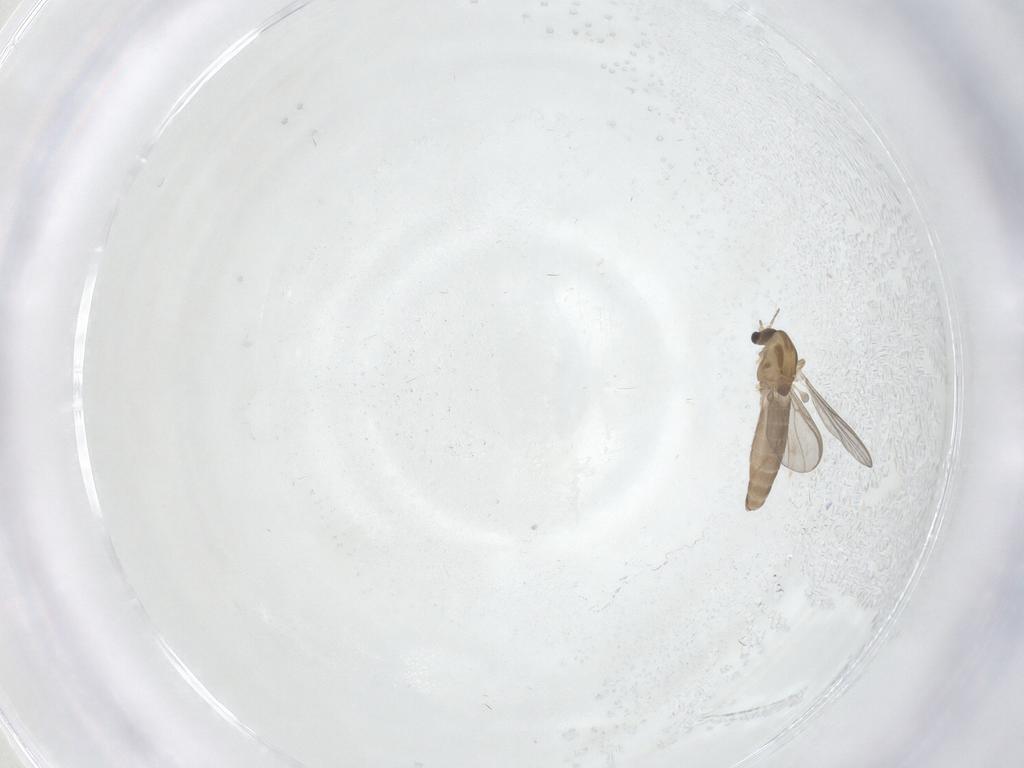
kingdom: Animalia
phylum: Arthropoda
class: Insecta
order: Diptera
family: Chironomidae
